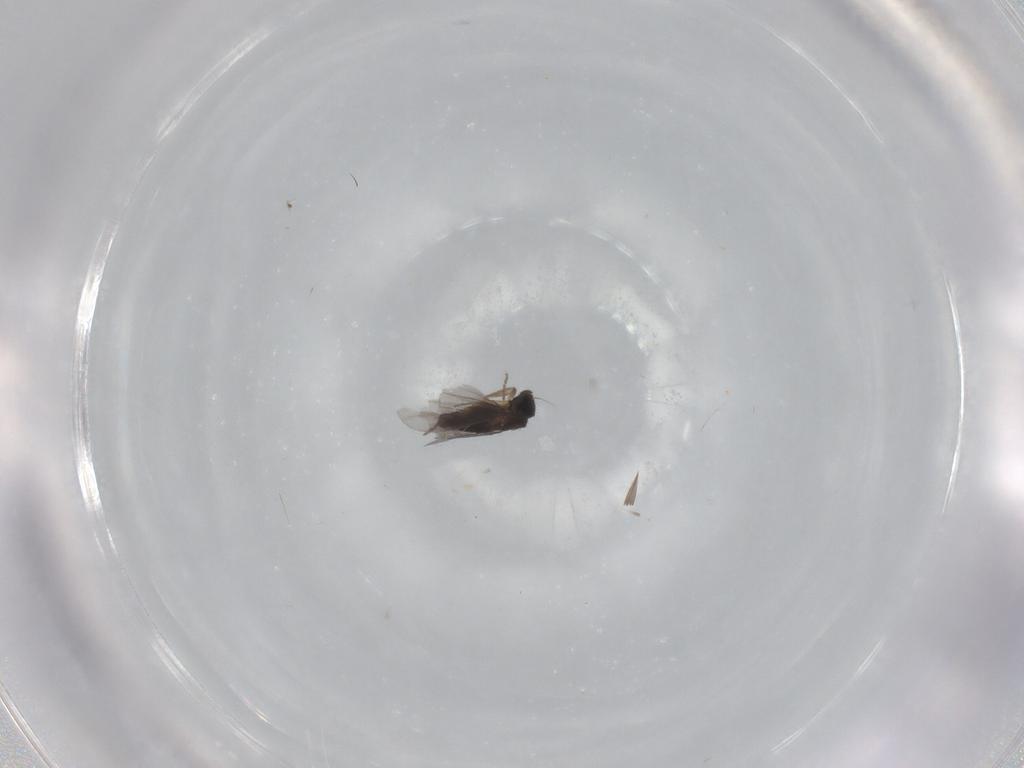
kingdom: Animalia
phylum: Arthropoda
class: Insecta
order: Diptera
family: Phoridae
